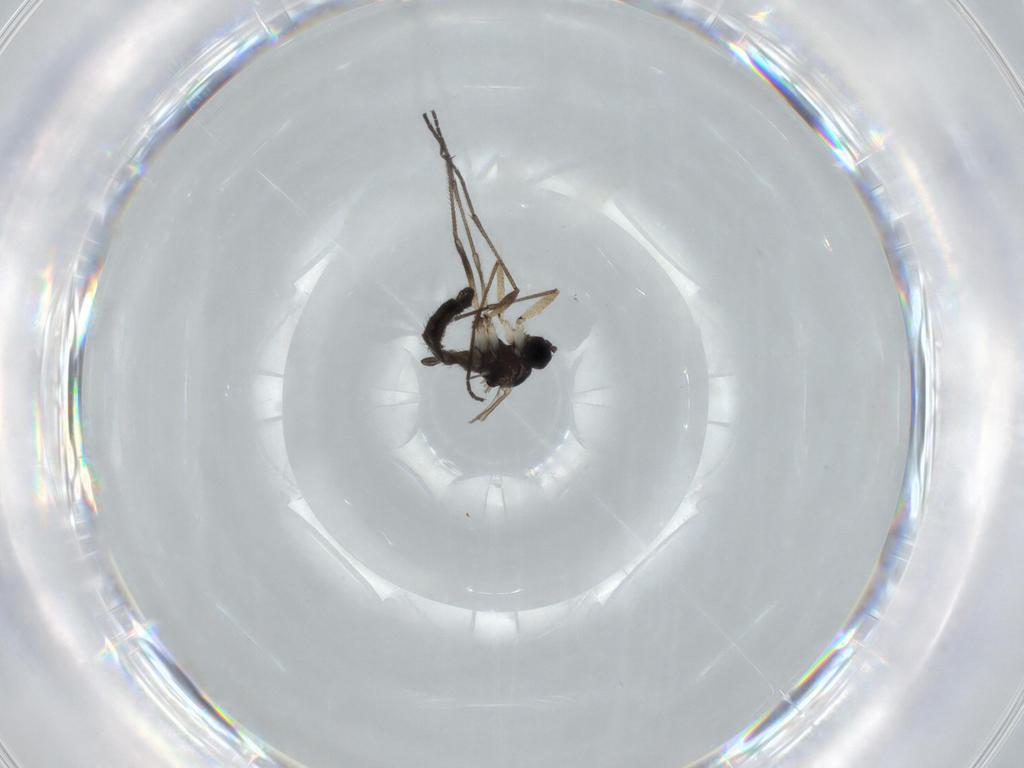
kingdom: Animalia
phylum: Arthropoda
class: Insecta
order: Diptera
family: Sciaridae
